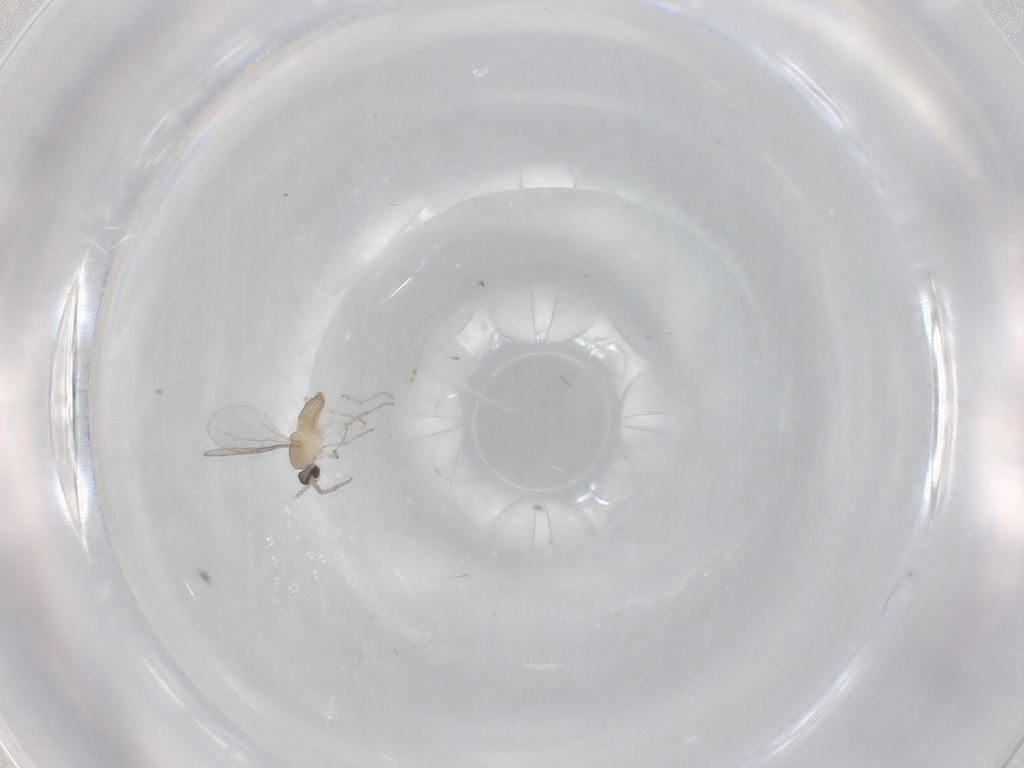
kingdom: Animalia
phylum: Arthropoda
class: Insecta
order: Diptera
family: Cecidomyiidae
